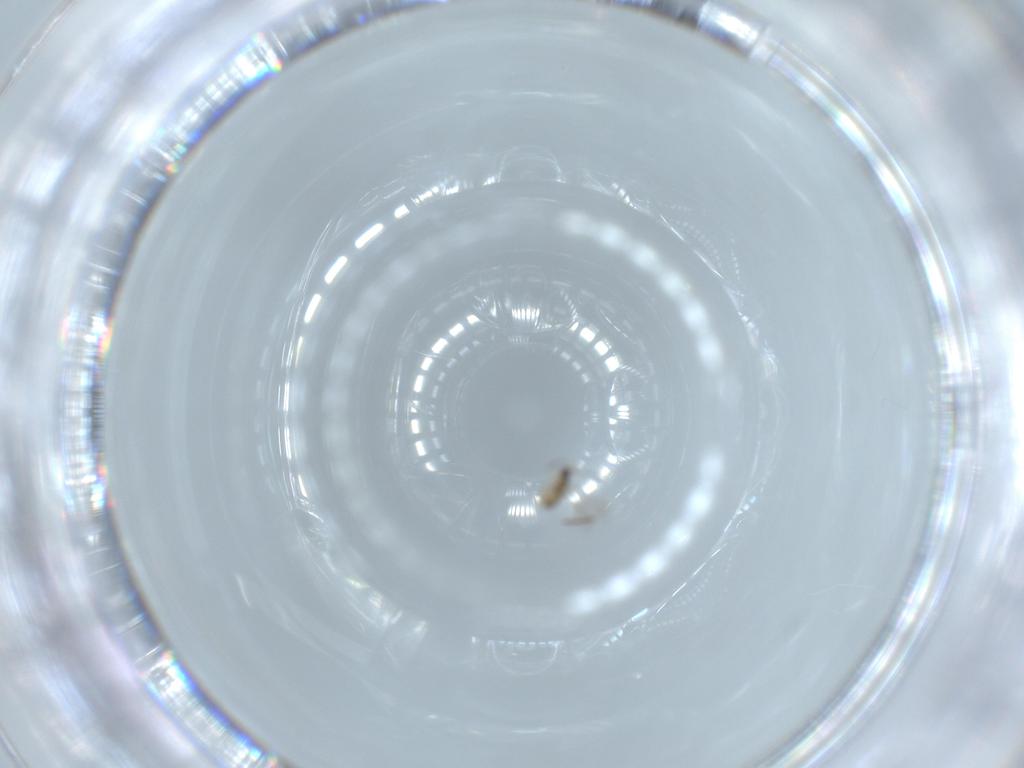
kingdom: Animalia
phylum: Arthropoda
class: Insecta
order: Hymenoptera
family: Mymaridae
